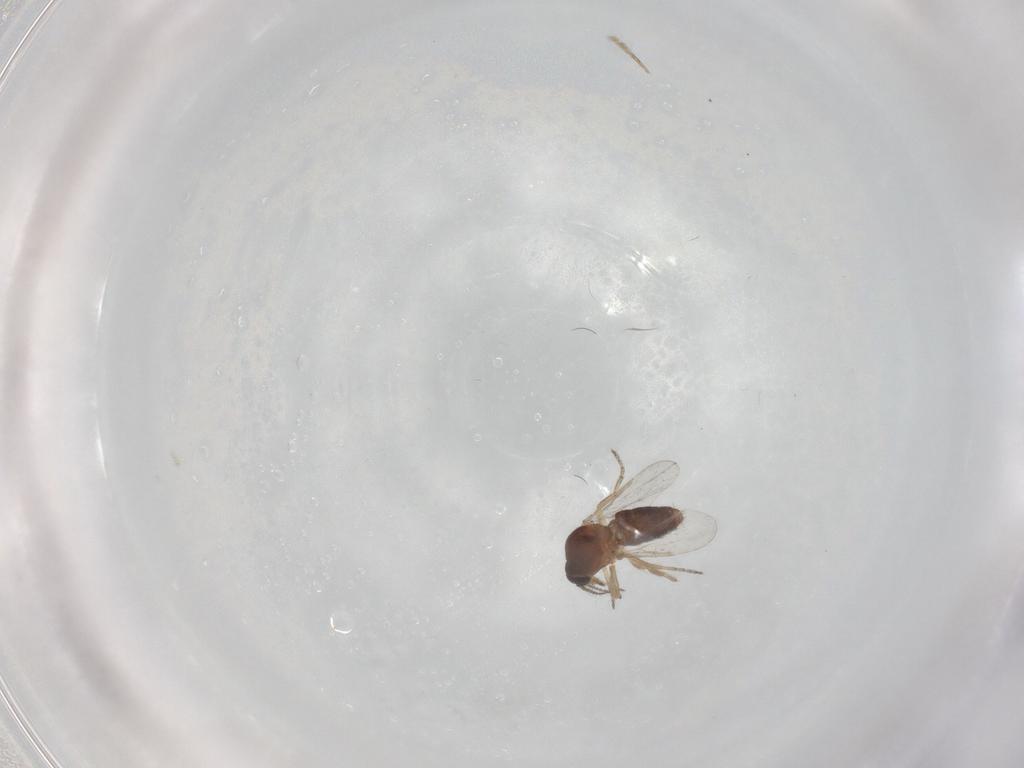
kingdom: Animalia
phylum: Arthropoda
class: Insecta
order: Diptera
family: Ceratopogonidae
